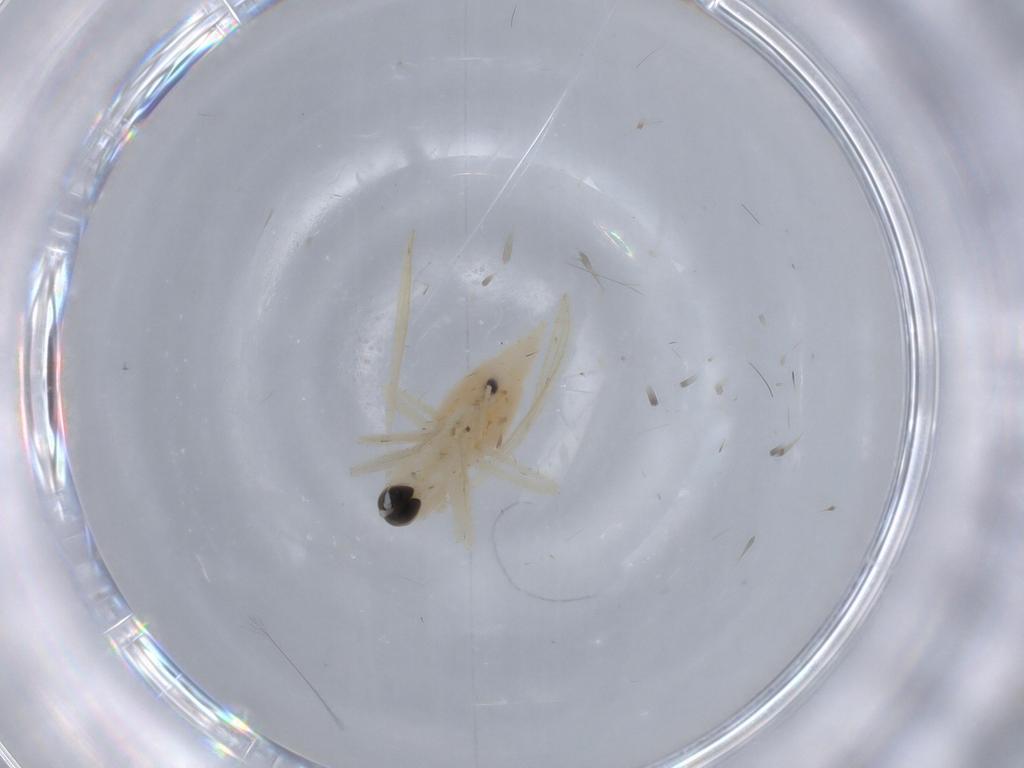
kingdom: Animalia
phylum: Arthropoda
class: Insecta
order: Diptera
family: Hybotidae
